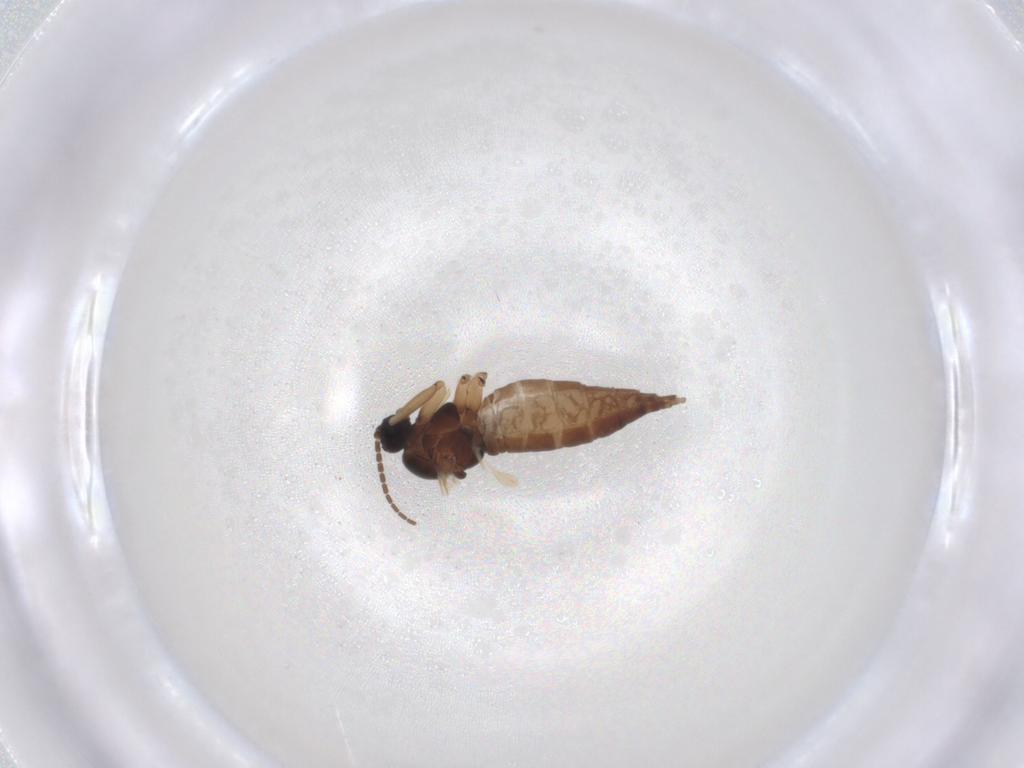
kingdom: Animalia
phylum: Arthropoda
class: Insecta
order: Diptera
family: Sciaridae
